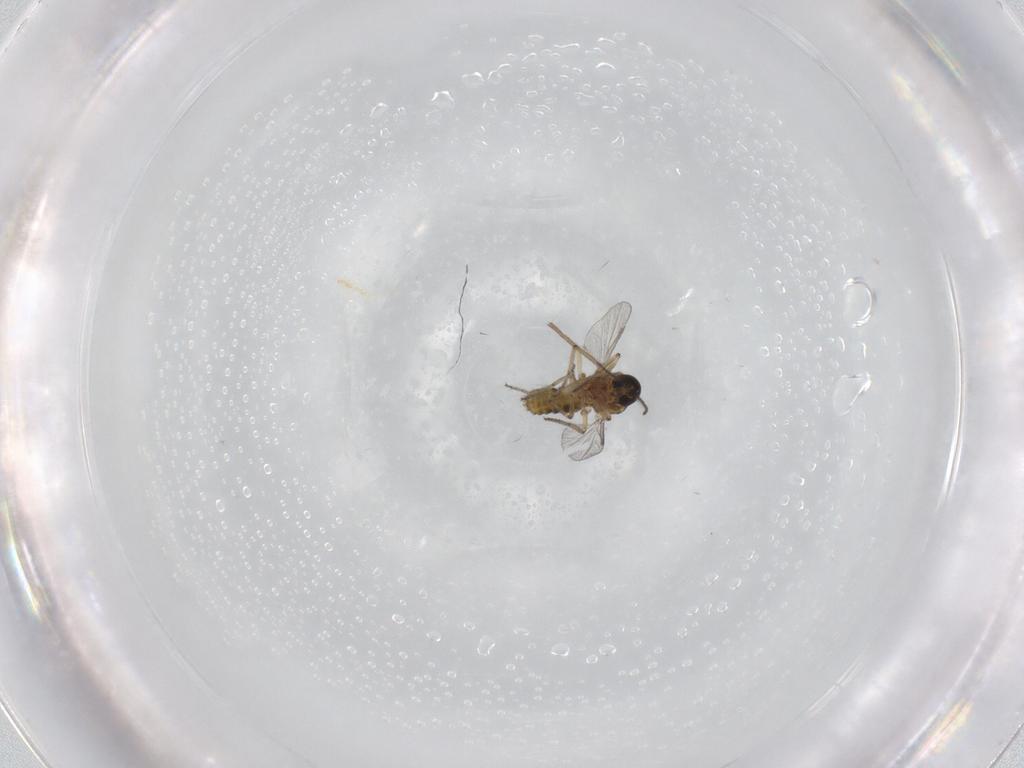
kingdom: Animalia
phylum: Arthropoda
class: Insecta
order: Diptera
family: Ceratopogonidae
